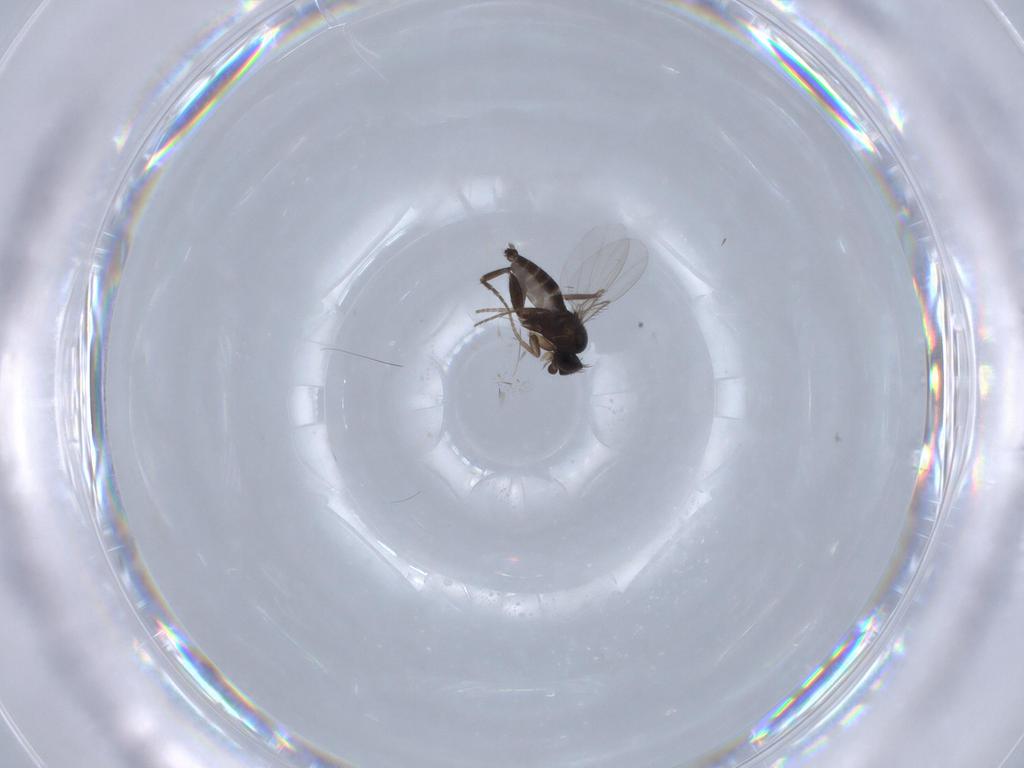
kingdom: Animalia
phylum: Arthropoda
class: Insecta
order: Diptera
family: Phoridae
